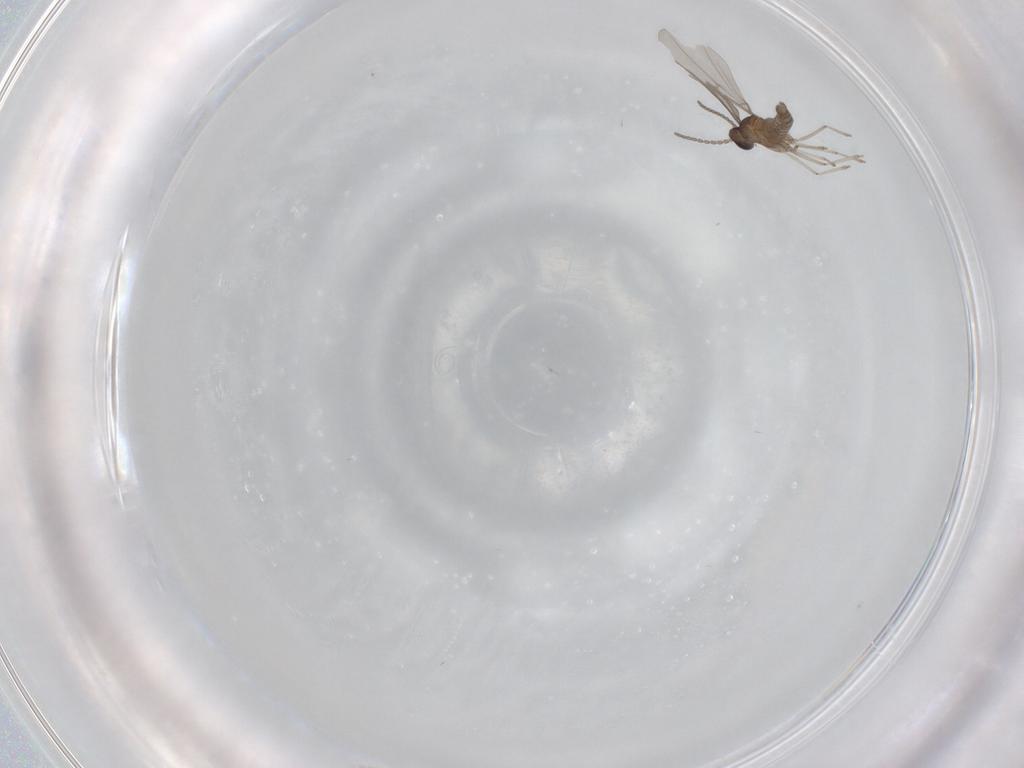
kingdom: Animalia
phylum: Arthropoda
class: Insecta
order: Diptera
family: Cecidomyiidae
